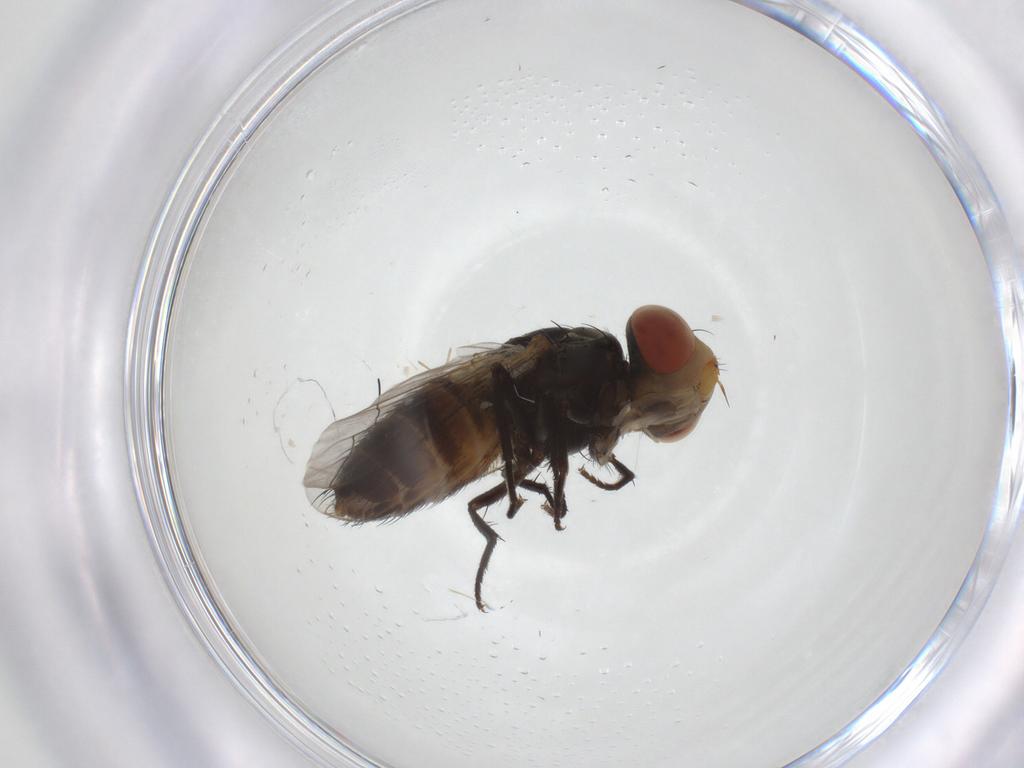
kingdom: Animalia
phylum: Arthropoda
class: Insecta
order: Diptera
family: Sarcophagidae
